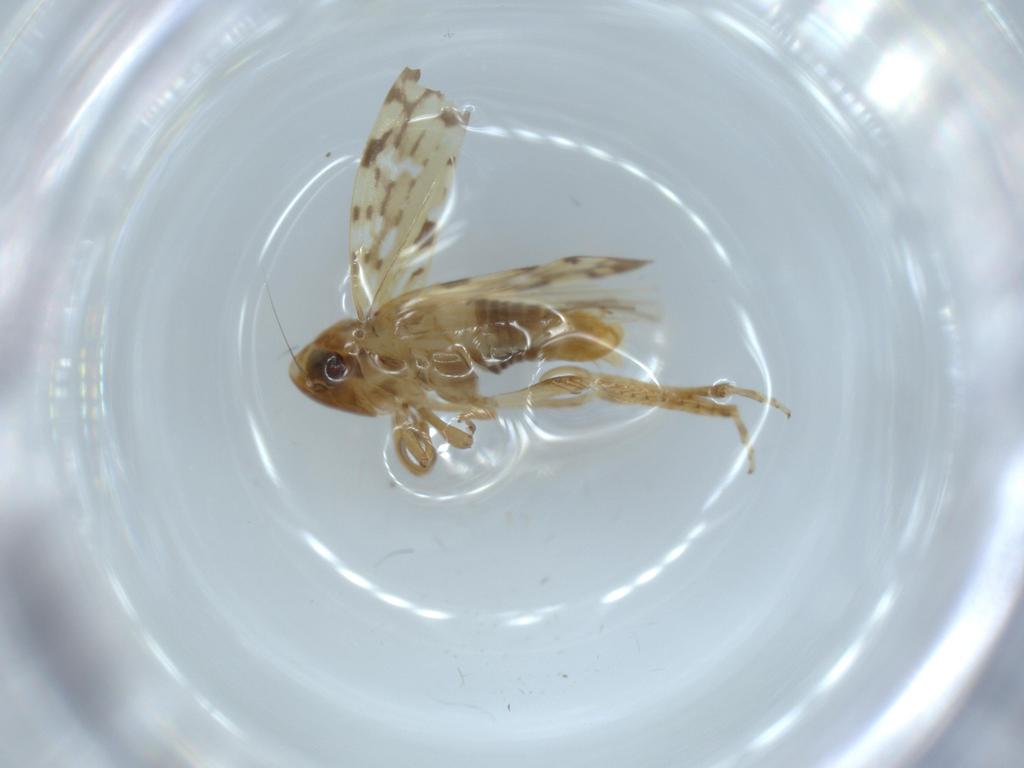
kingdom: Animalia
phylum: Arthropoda
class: Insecta
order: Hemiptera
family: Cicadellidae
